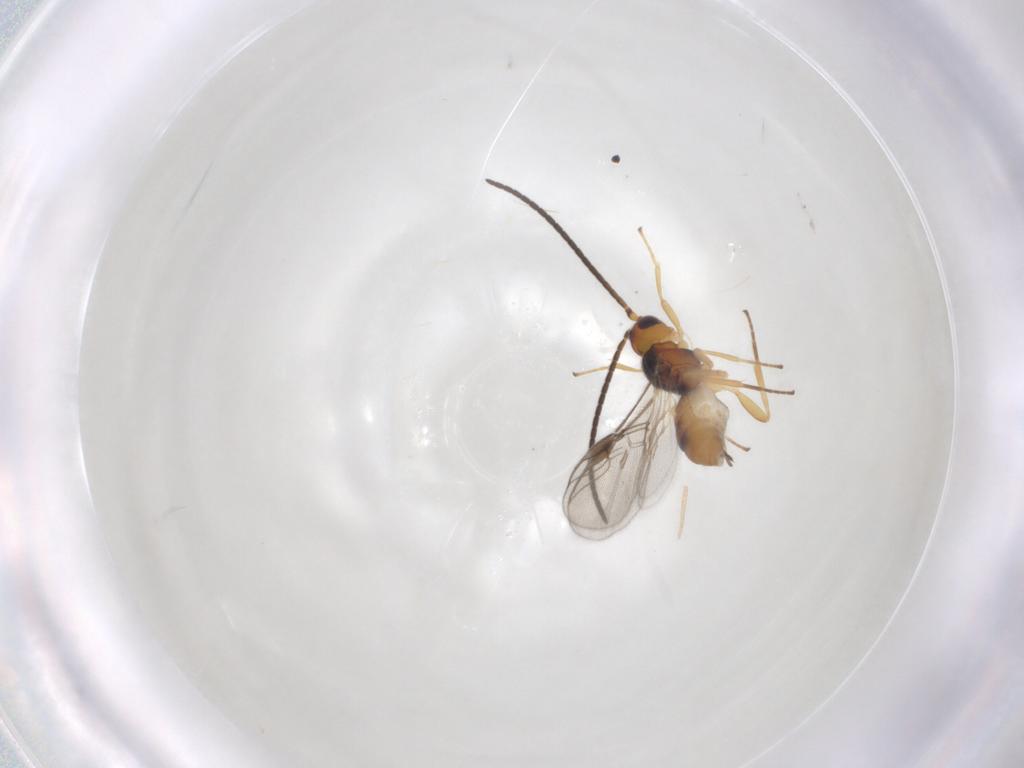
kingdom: Animalia
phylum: Arthropoda
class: Insecta
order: Hymenoptera
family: Braconidae
